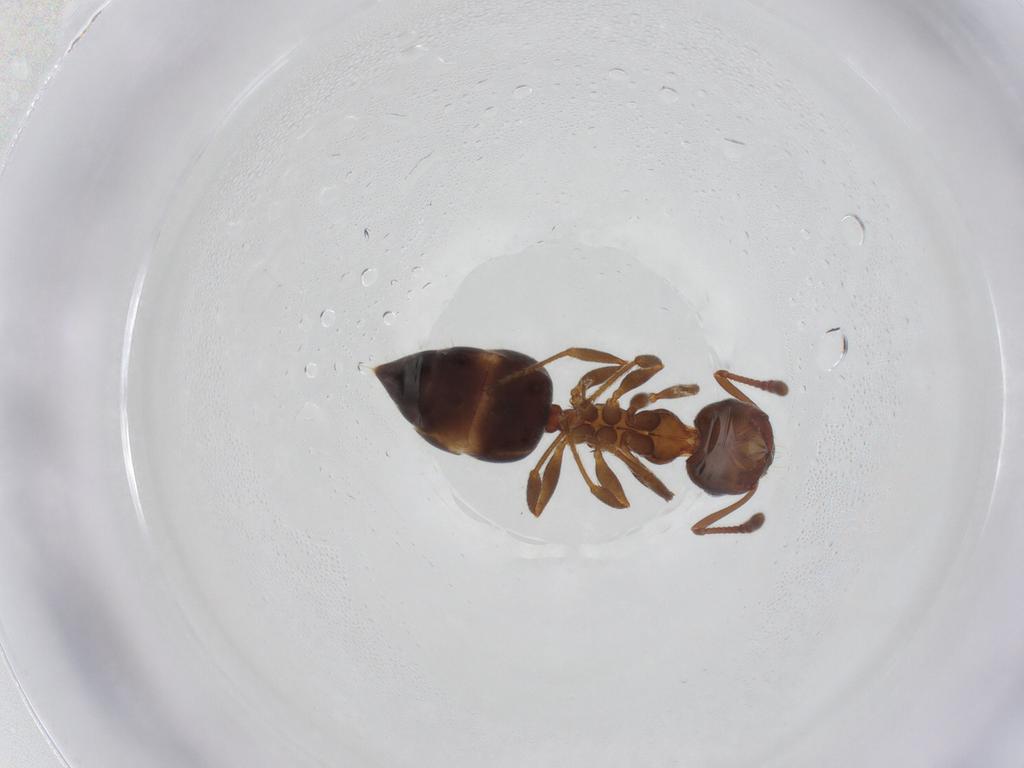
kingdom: Animalia
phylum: Arthropoda
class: Insecta
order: Hymenoptera
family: Formicidae
